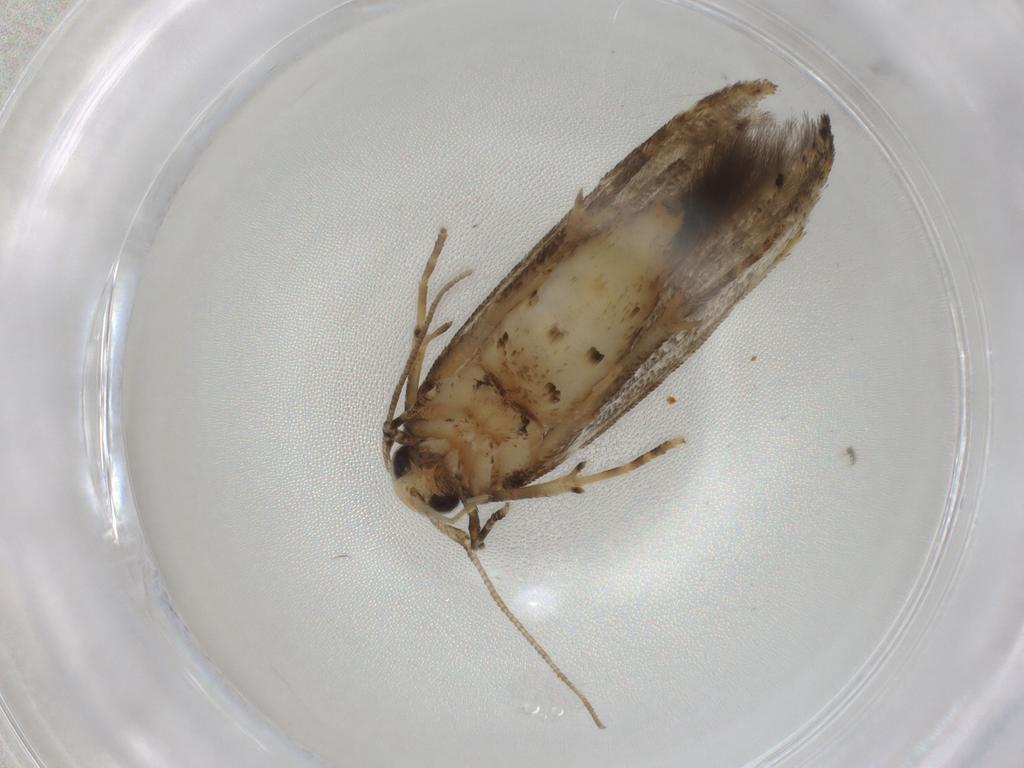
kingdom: Animalia
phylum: Arthropoda
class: Insecta
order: Lepidoptera
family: Gelechiidae
